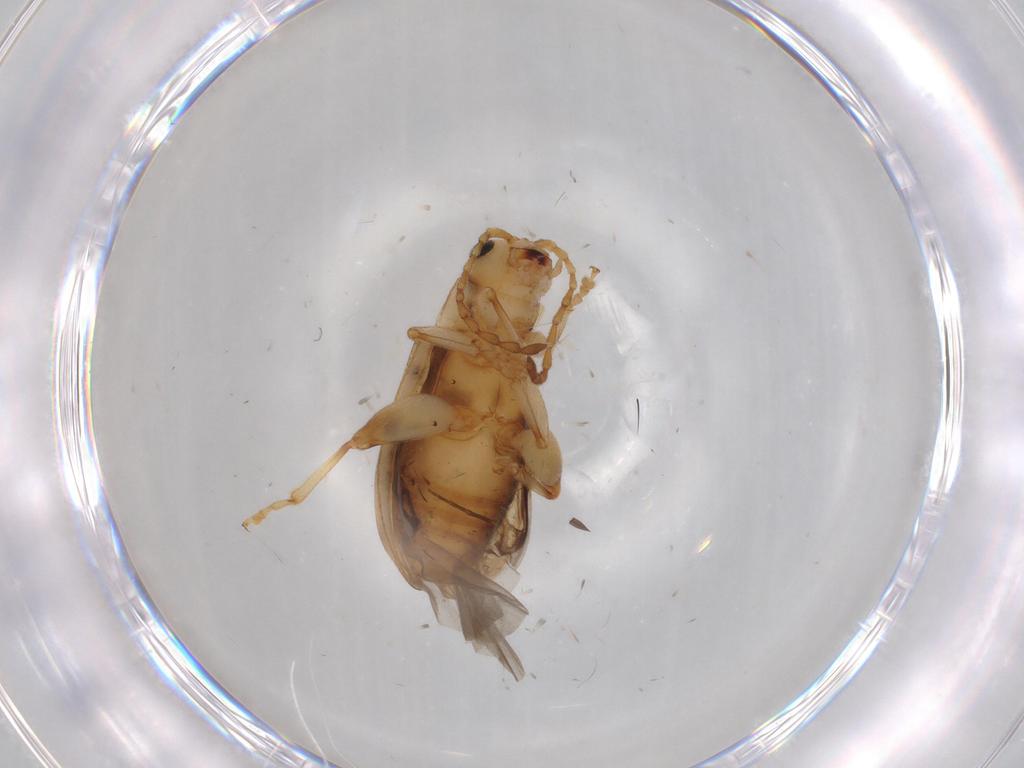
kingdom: Animalia
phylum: Arthropoda
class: Insecta
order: Coleoptera
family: Chrysomelidae
